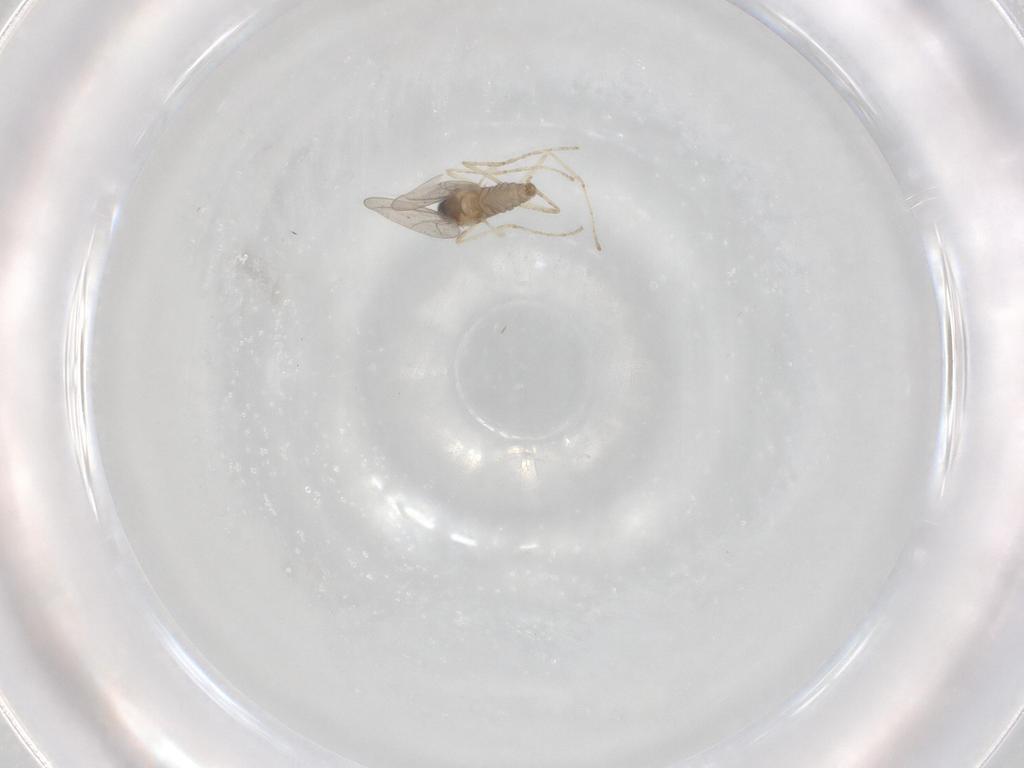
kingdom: Animalia
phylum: Arthropoda
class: Insecta
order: Diptera
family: Cecidomyiidae
